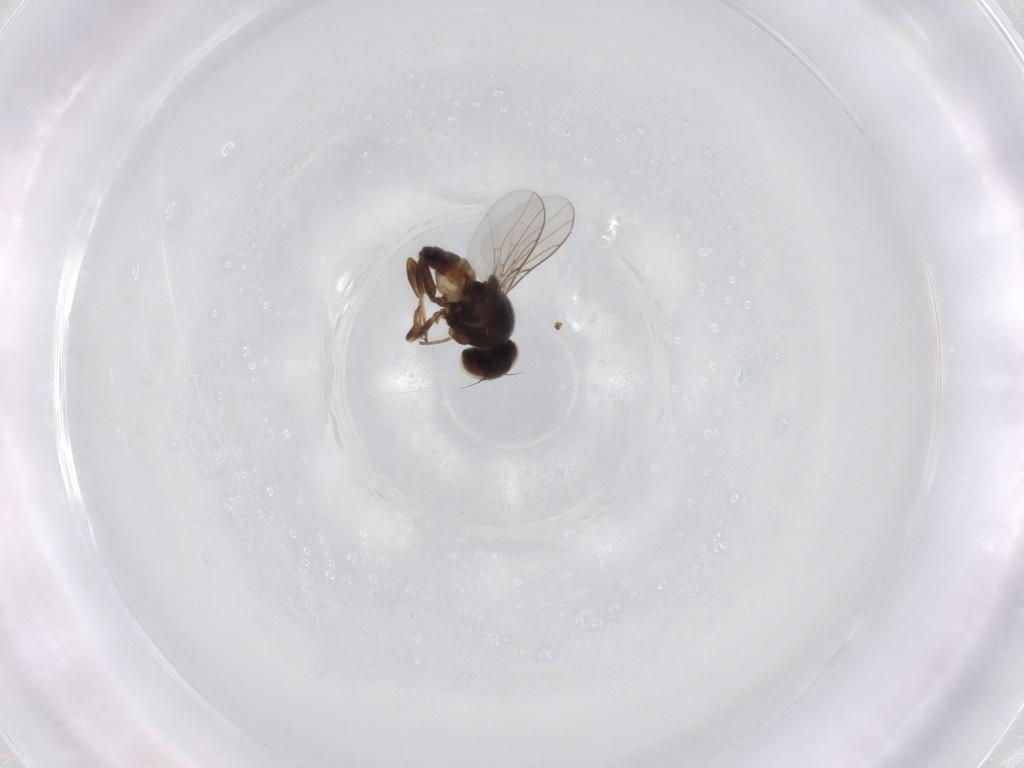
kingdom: Animalia
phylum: Arthropoda
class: Insecta
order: Diptera
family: Chloropidae
